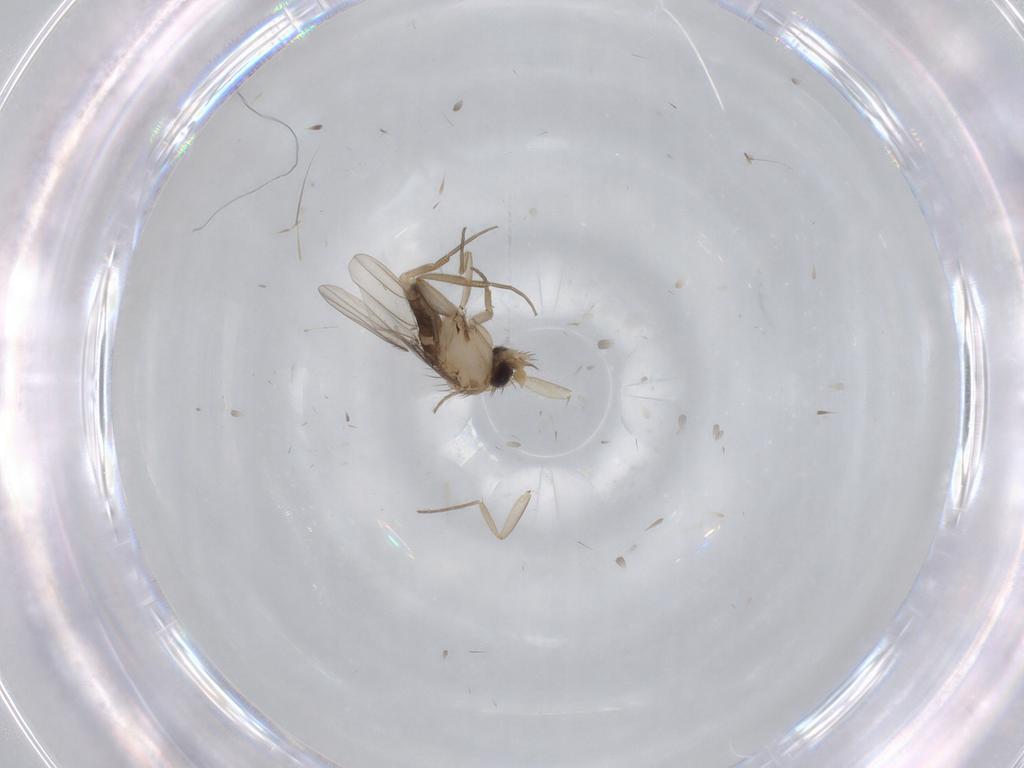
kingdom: Animalia
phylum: Arthropoda
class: Insecta
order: Diptera
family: Phoridae
